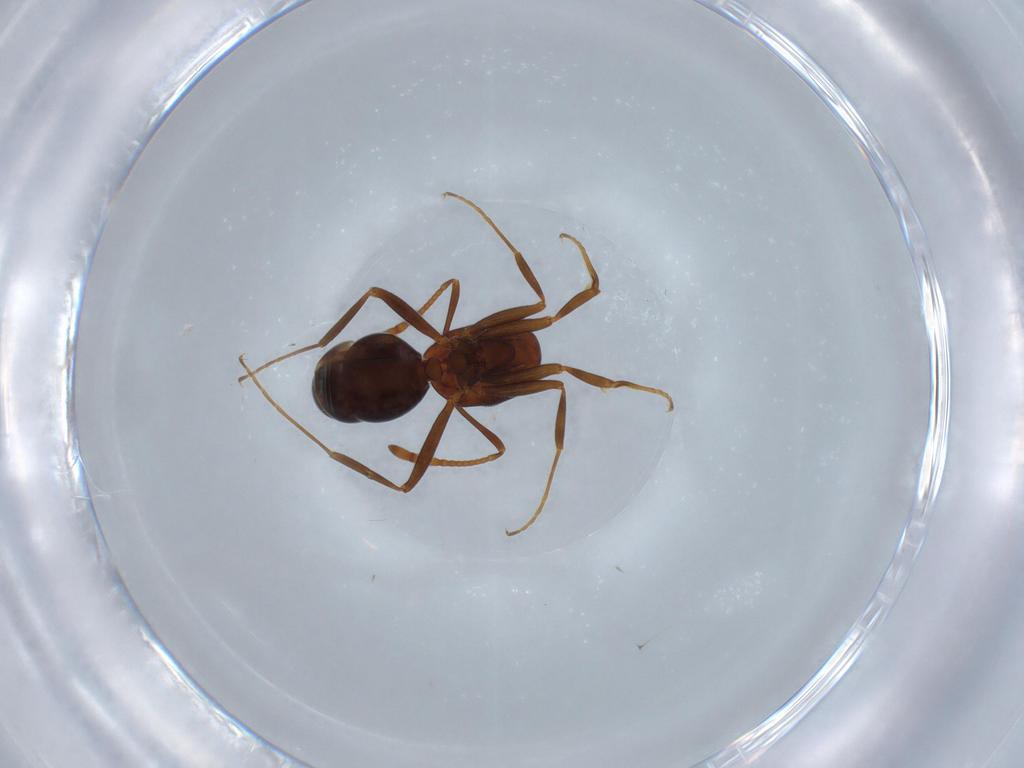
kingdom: Animalia
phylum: Arthropoda
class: Insecta
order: Hymenoptera
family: Formicidae
